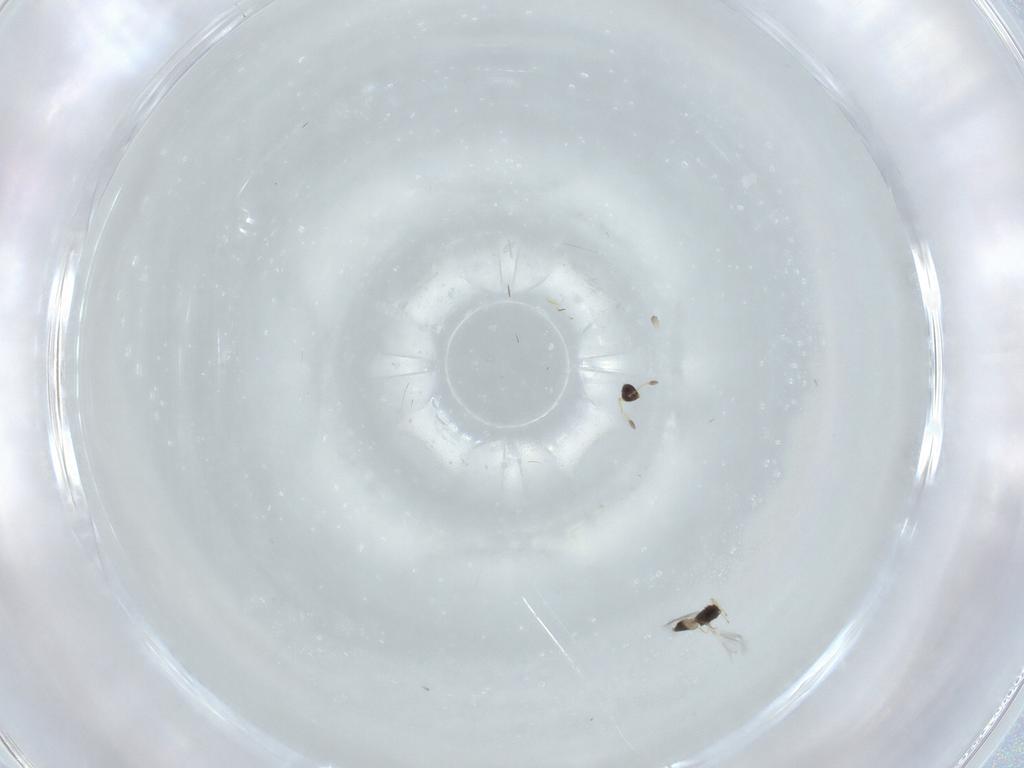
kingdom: Animalia
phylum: Arthropoda
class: Insecta
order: Hymenoptera
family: Mymaridae
